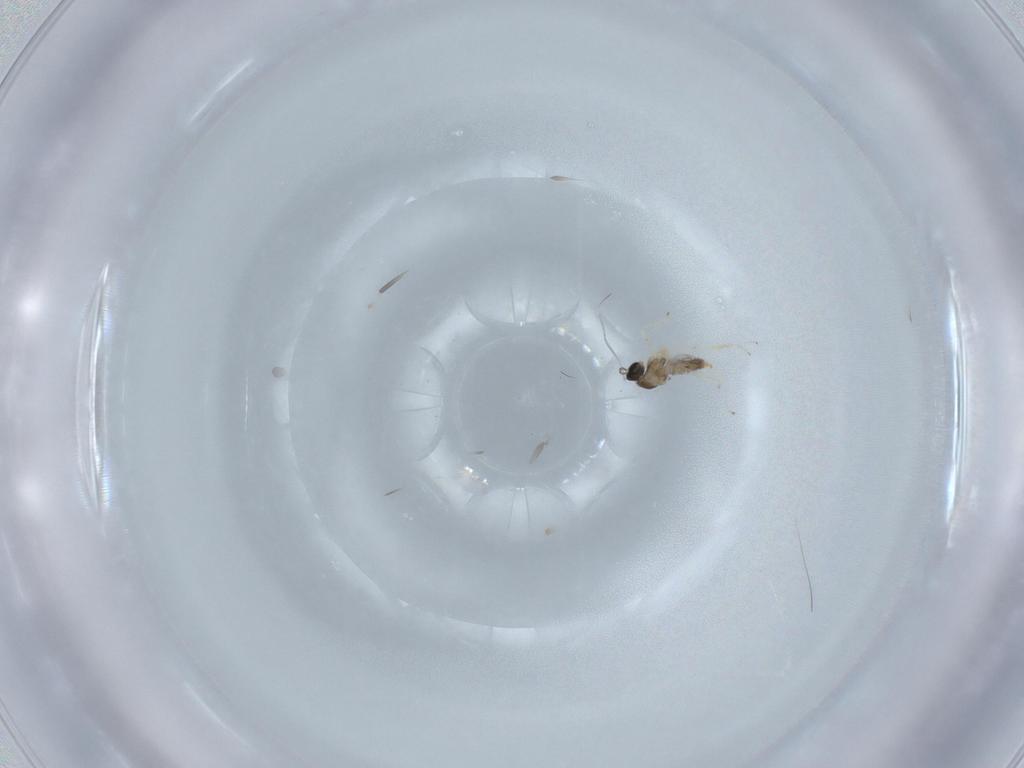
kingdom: Animalia
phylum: Arthropoda
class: Insecta
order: Diptera
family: Cecidomyiidae
